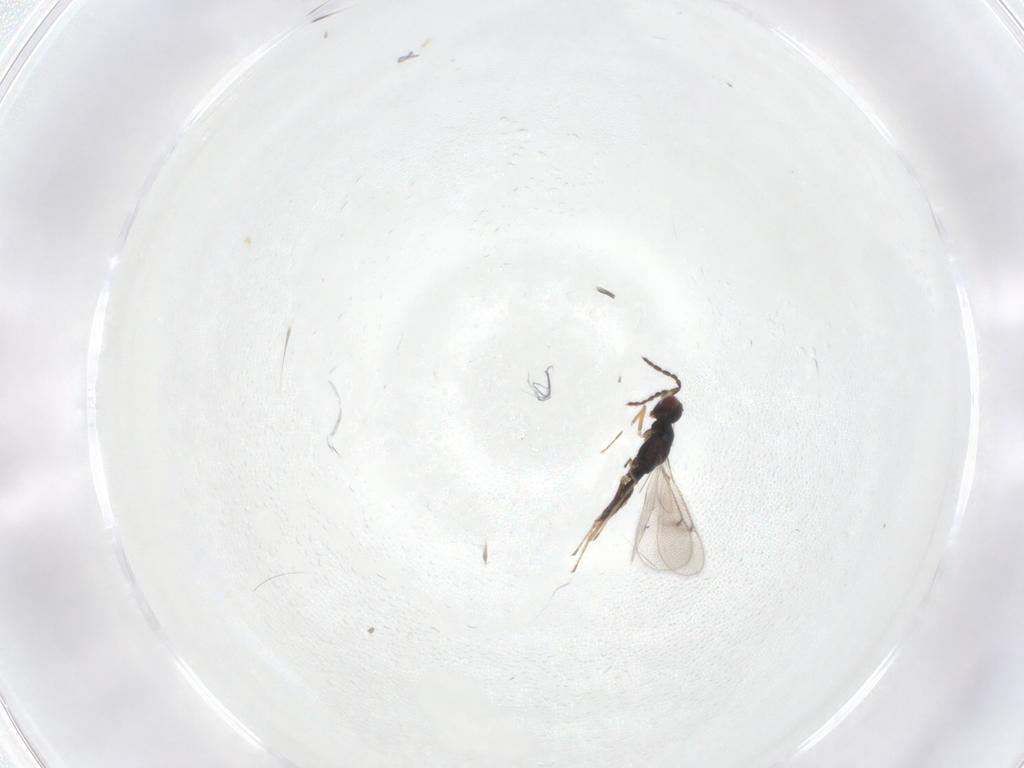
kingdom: Animalia
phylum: Arthropoda
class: Insecta
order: Hymenoptera
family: Eulophidae
